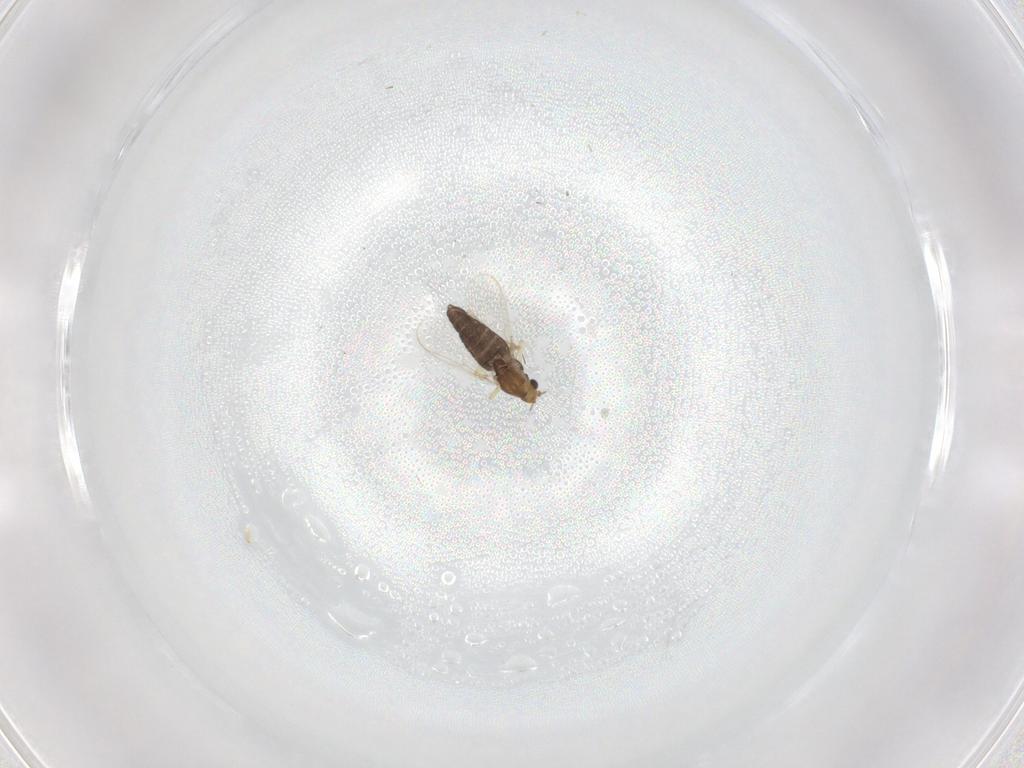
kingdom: Animalia
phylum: Arthropoda
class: Insecta
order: Diptera
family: Chironomidae
